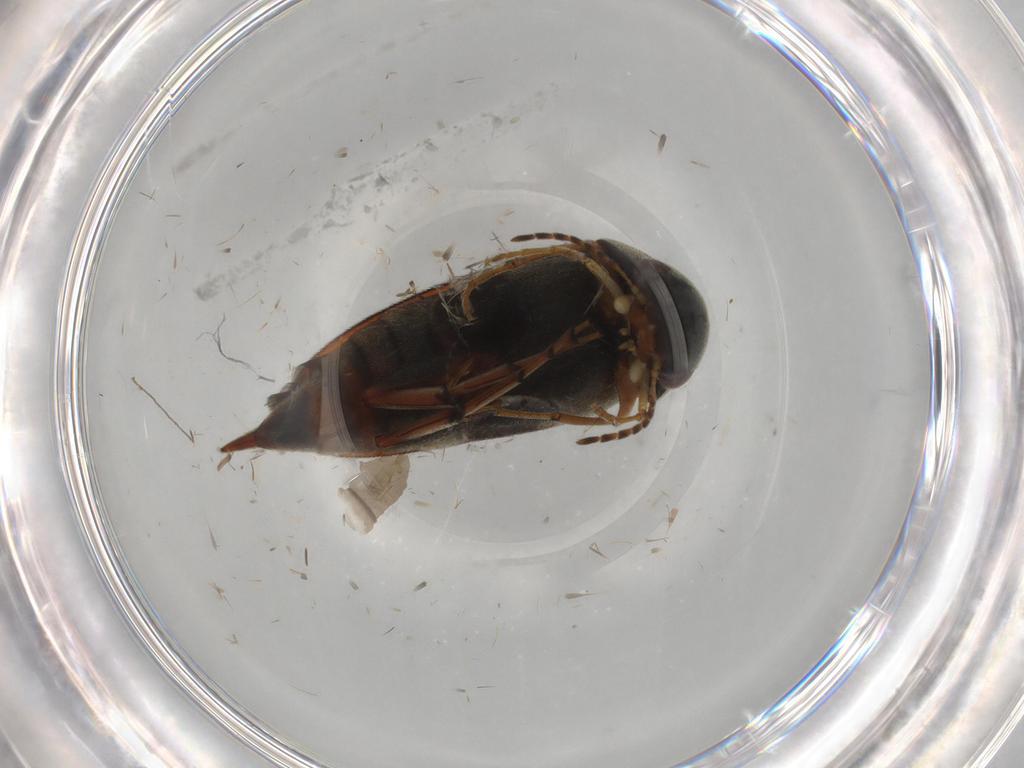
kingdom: Animalia
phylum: Arthropoda
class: Insecta
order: Coleoptera
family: Mordellidae
